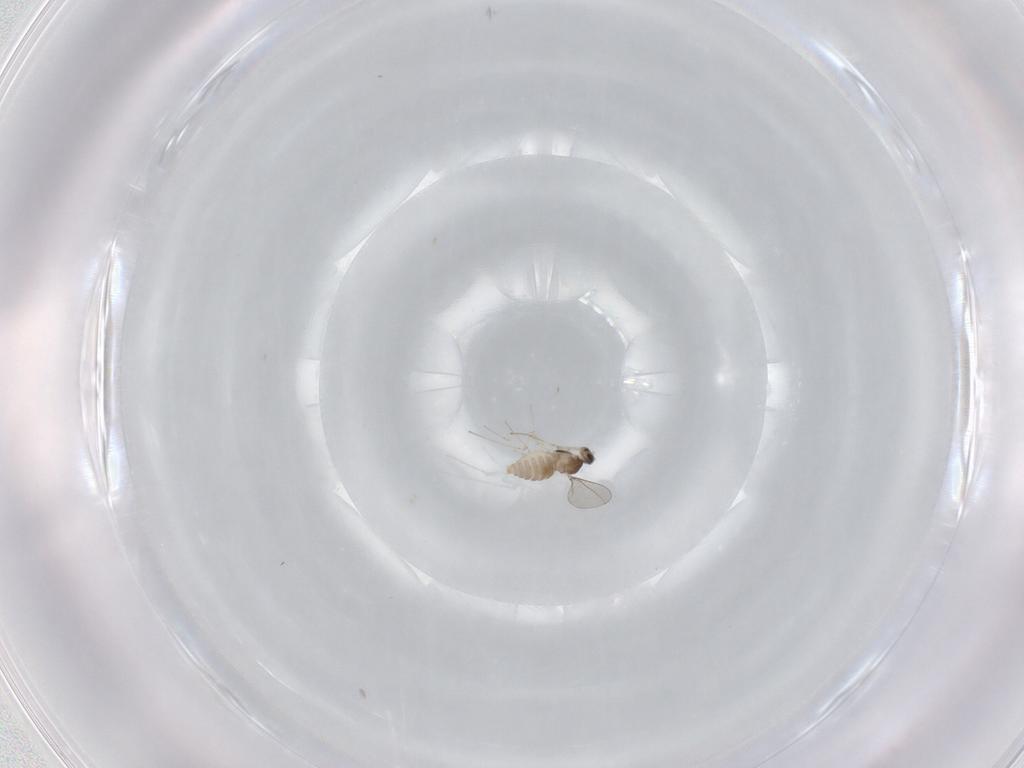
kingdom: Animalia
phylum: Arthropoda
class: Insecta
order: Diptera
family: Cecidomyiidae
